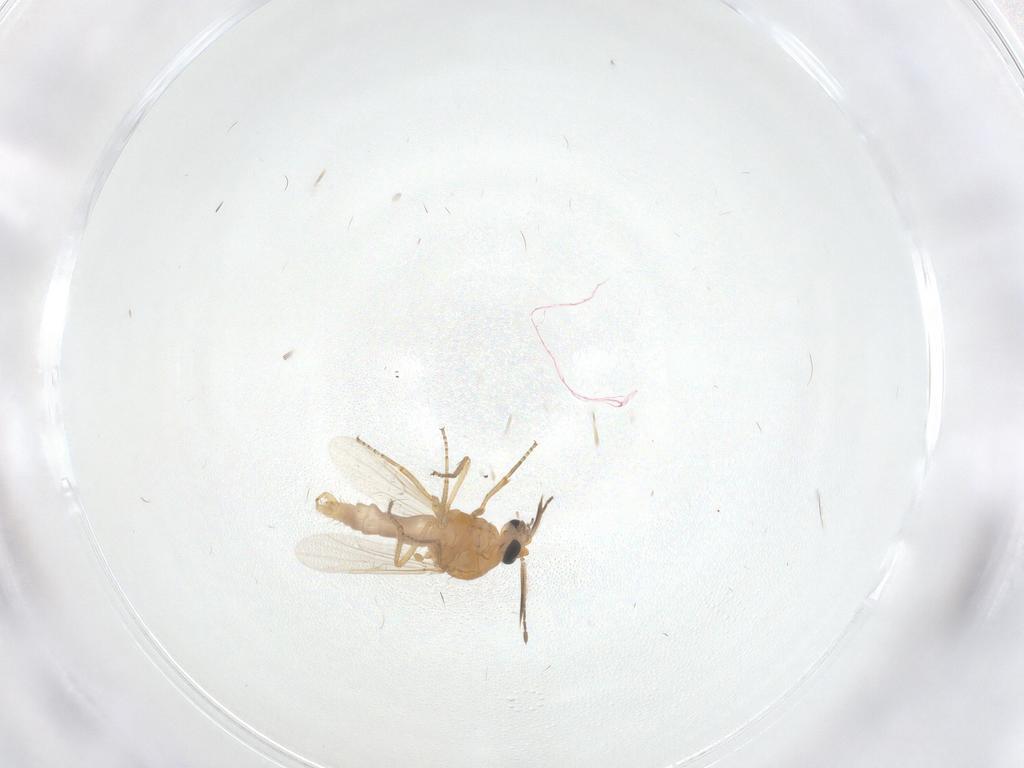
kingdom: Animalia
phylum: Arthropoda
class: Insecta
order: Diptera
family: Ceratopogonidae
